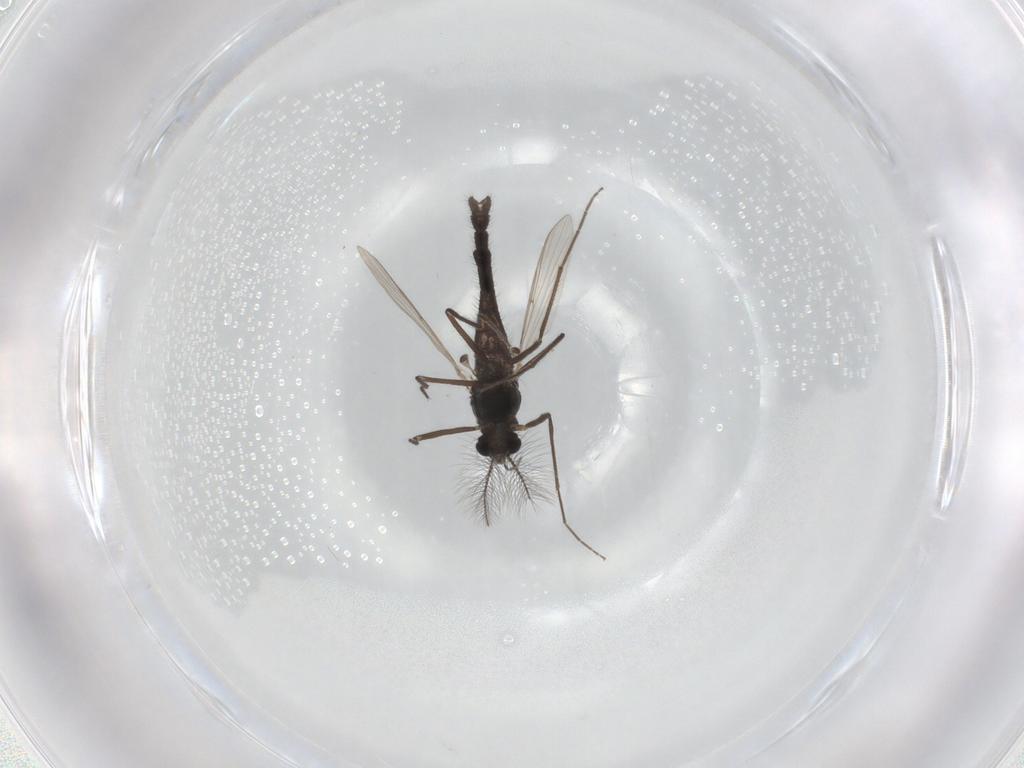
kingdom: Animalia
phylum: Arthropoda
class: Insecta
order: Diptera
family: Chironomidae
